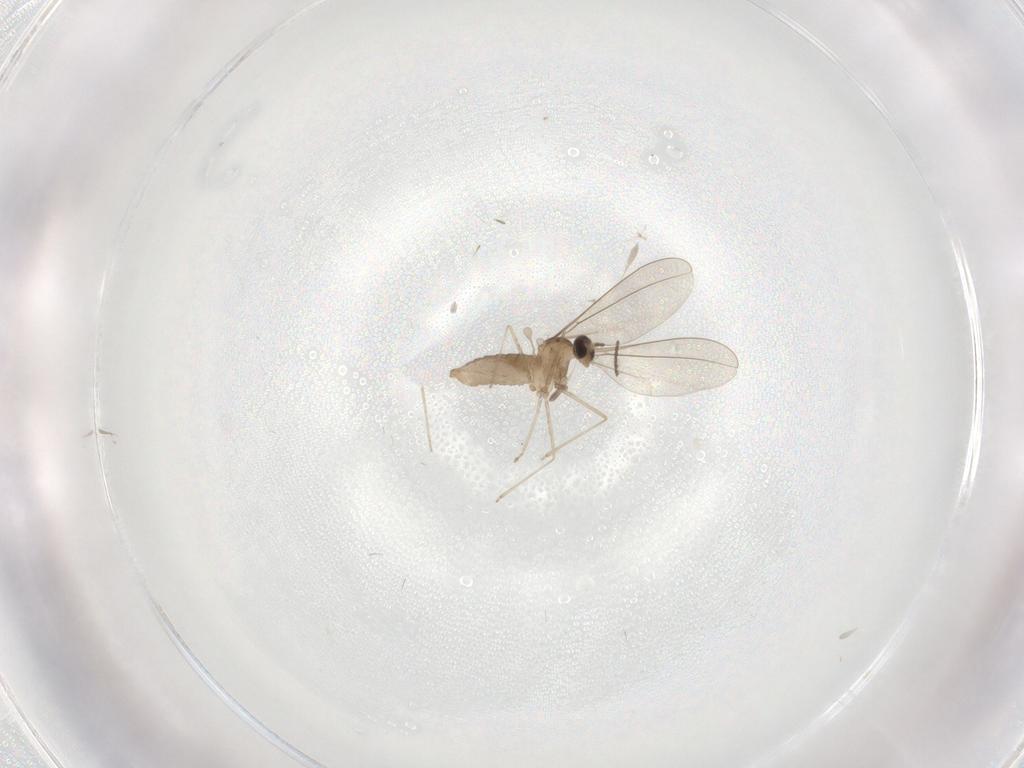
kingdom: Animalia
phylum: Arthropoda
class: Insecta
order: Diptera
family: Cecidomyiidae
